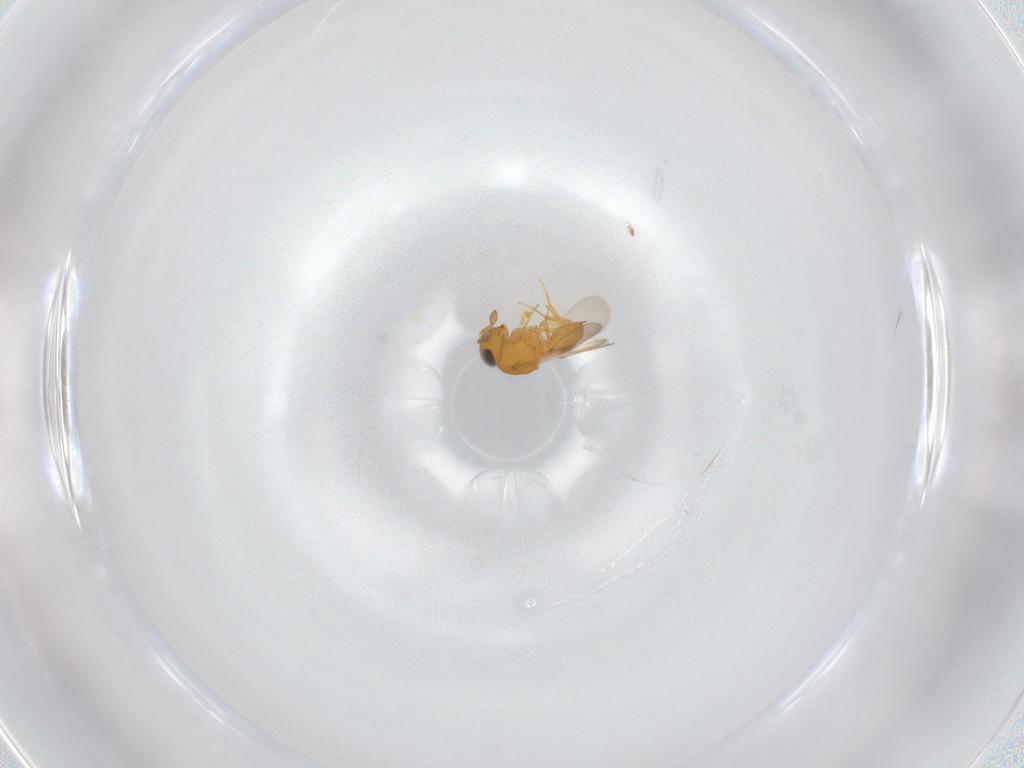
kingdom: Animalia
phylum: Arthropoda
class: Insecta
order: Hymenoptera
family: Scelionidae
